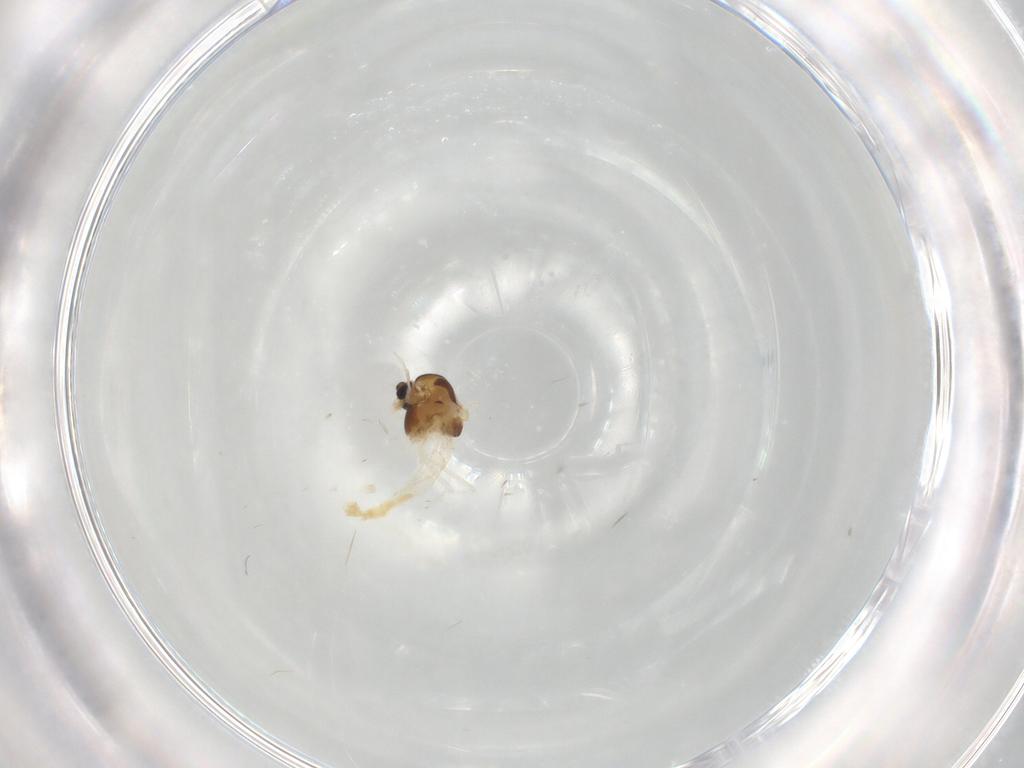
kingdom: Animalia
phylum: Arthropoda
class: Insecta
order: Diptera
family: Chironomidae
